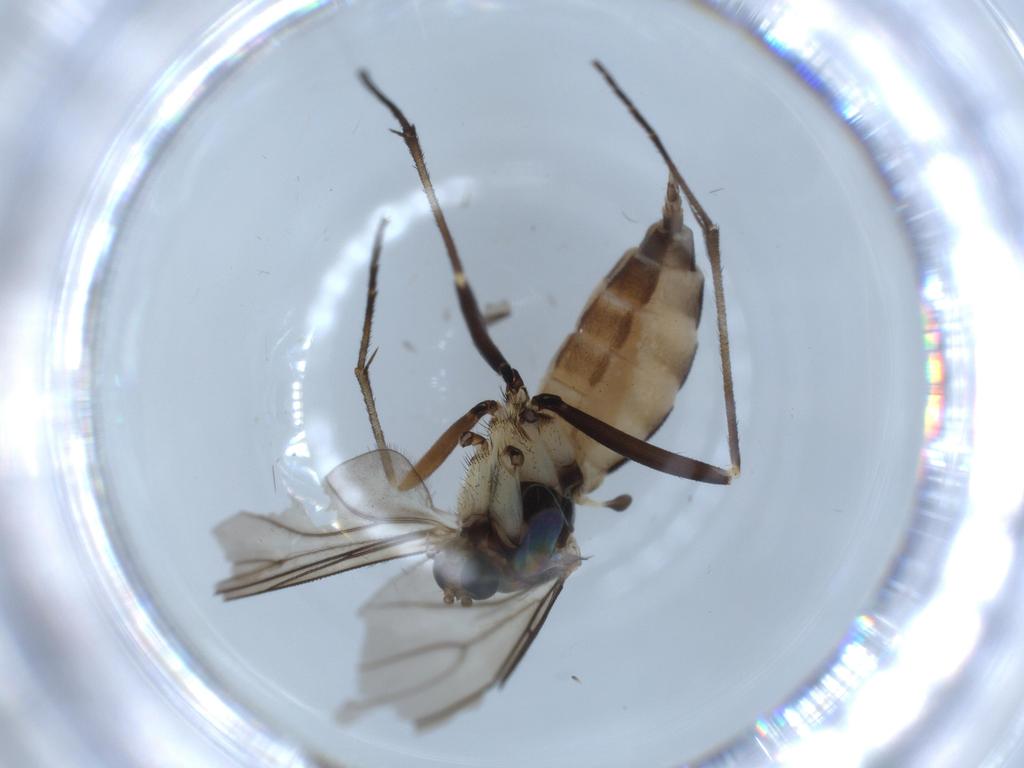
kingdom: Animalia
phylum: Arthropoda
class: Insecta
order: Diptera
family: Sciaridae
